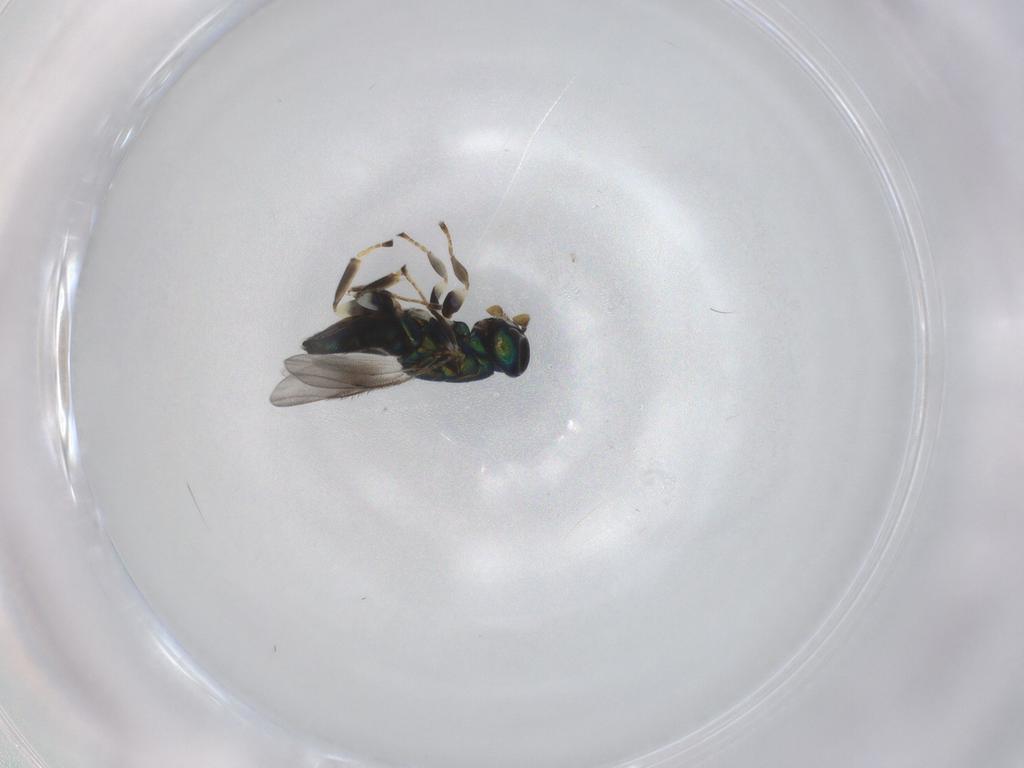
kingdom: Animalia
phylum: Arthropoda
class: Insecta
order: Hymenoptera
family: Eulophidae
